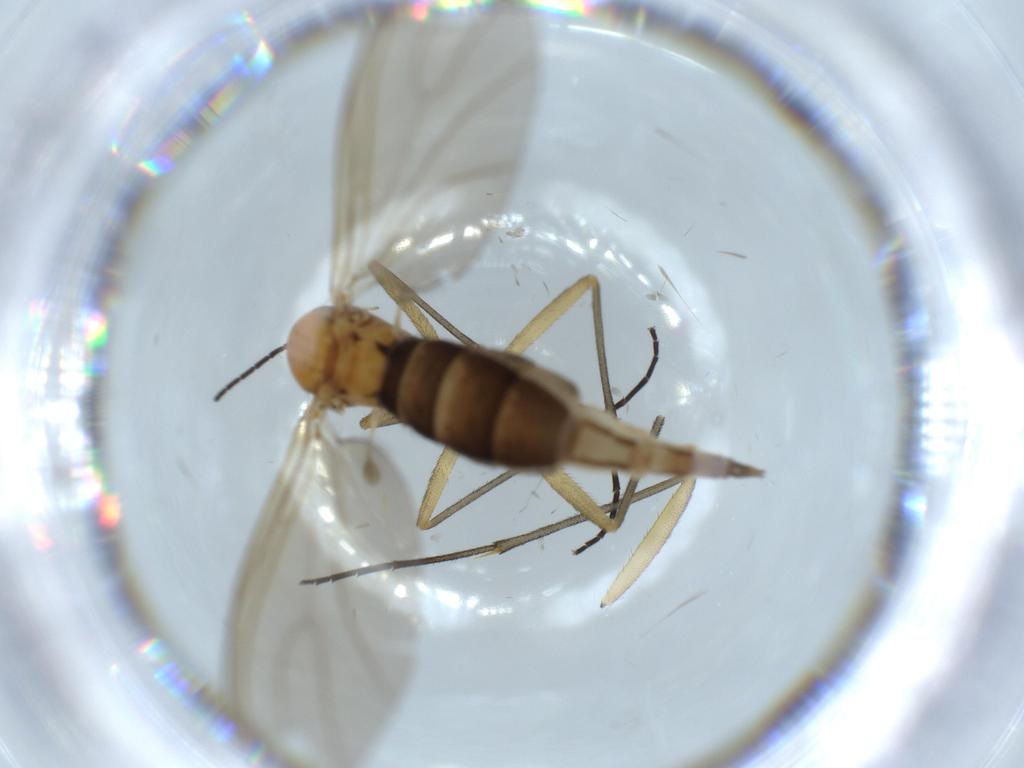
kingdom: Animalia
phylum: Arthropoda
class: Insecta
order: Diptera
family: Sciaridae
